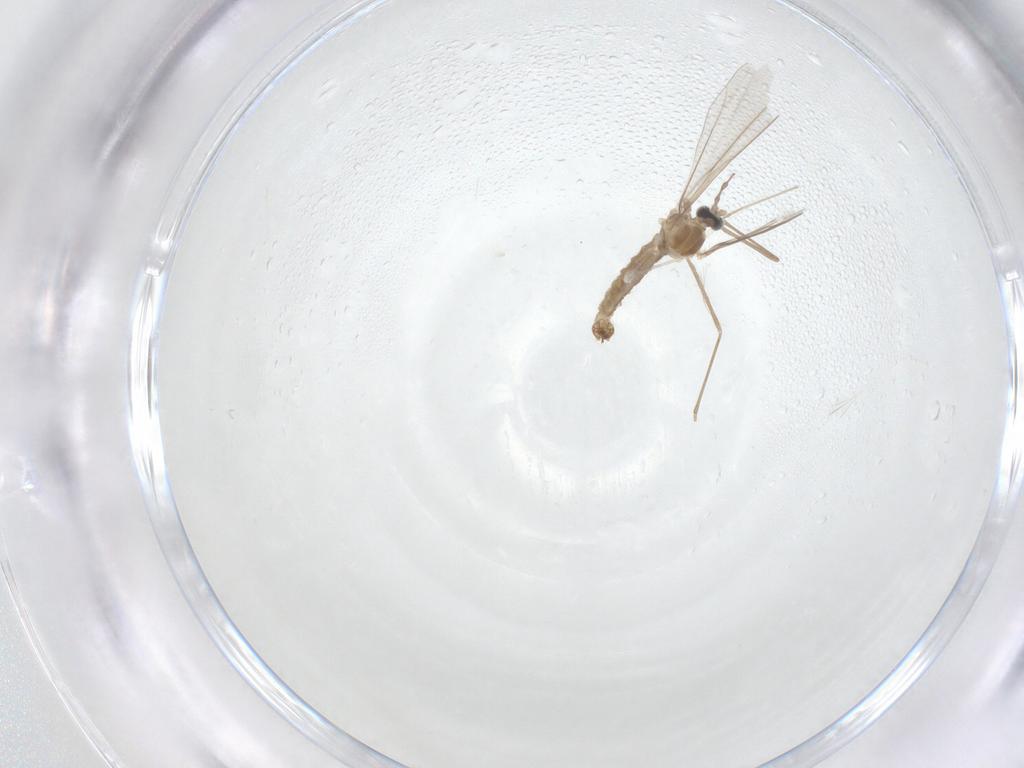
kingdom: Animalia
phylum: Arthropoda
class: Insecta
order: Diptera
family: Cecidomyiidae
